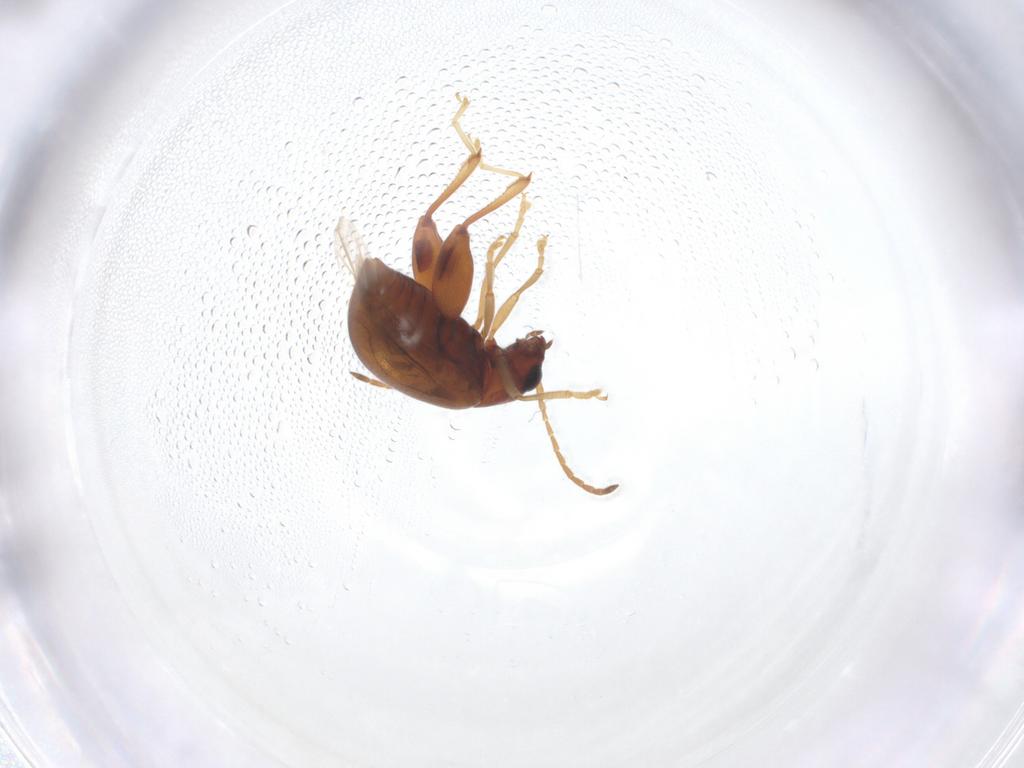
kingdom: Animalia
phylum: Arthropoda
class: Insecta
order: Coleoptera
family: Chrysomelidae
